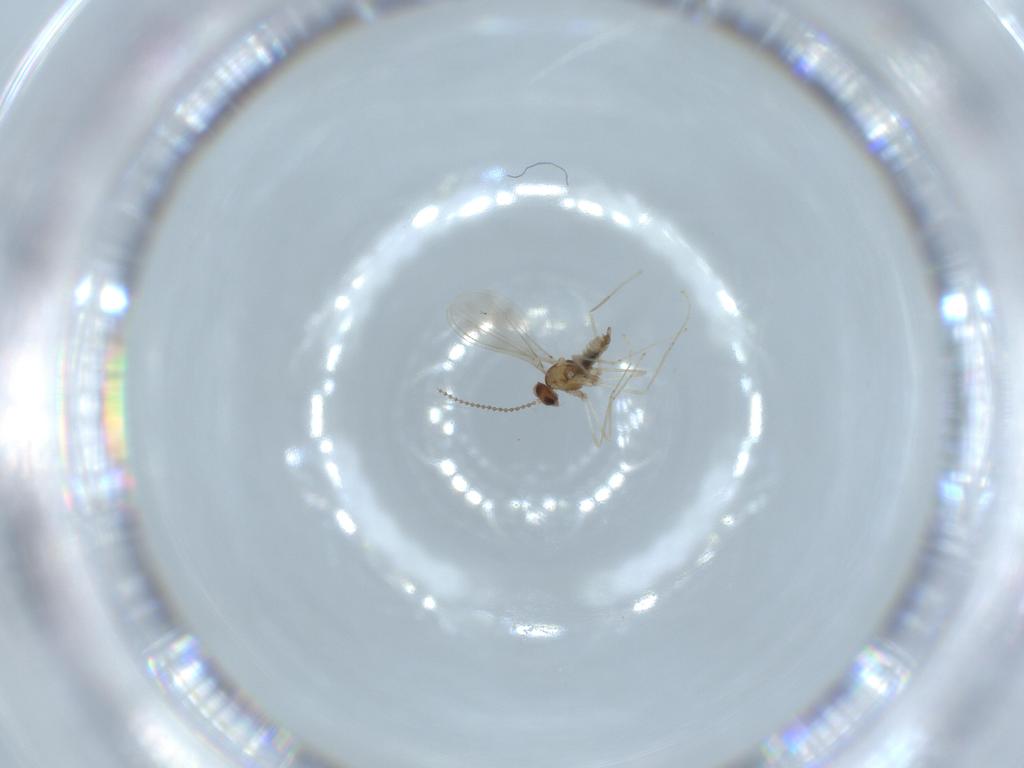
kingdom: Animalia
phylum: Arthropoda
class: Insecta
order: Diptera
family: Cecidomyiidae
